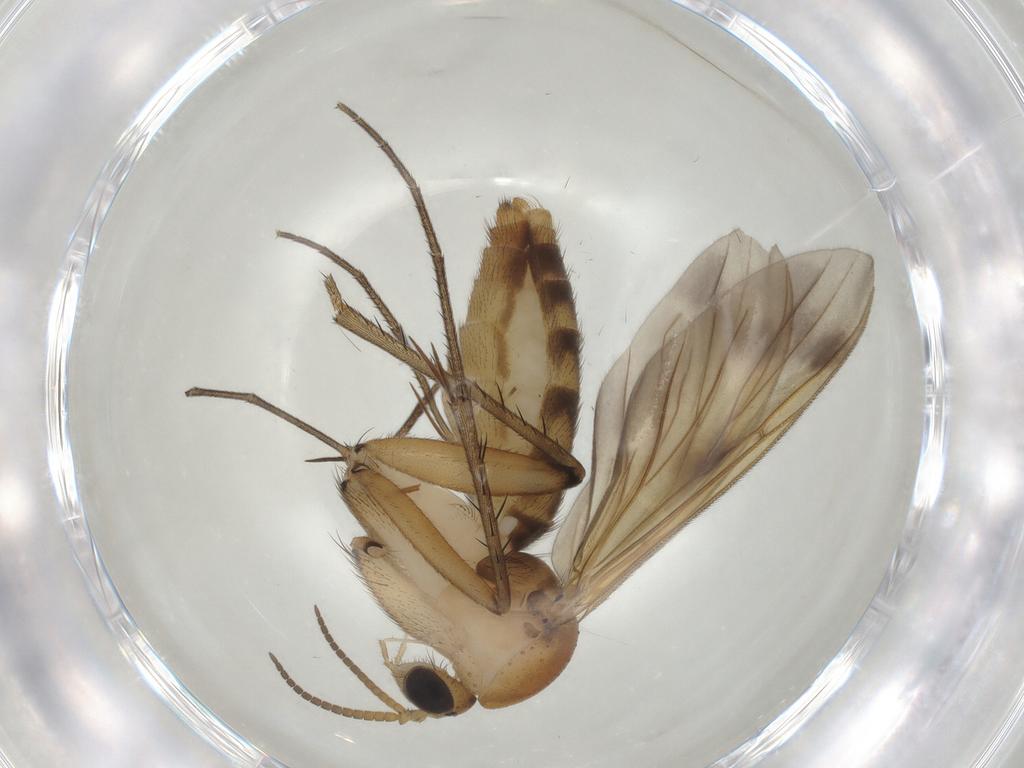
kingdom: Animalia
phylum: Arthropoda
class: Insecta
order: Diptera
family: Mycetophilidae
